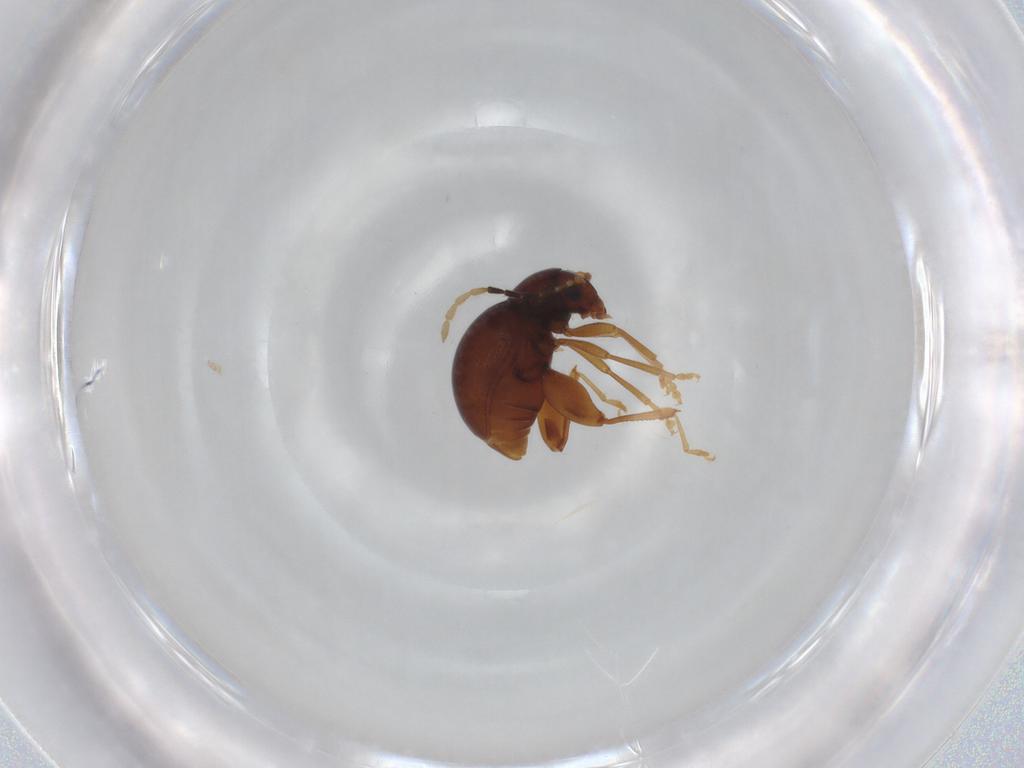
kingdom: Animalia
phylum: Arthropoda
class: Insecta
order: Coleoptera
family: Chrysomelidae
